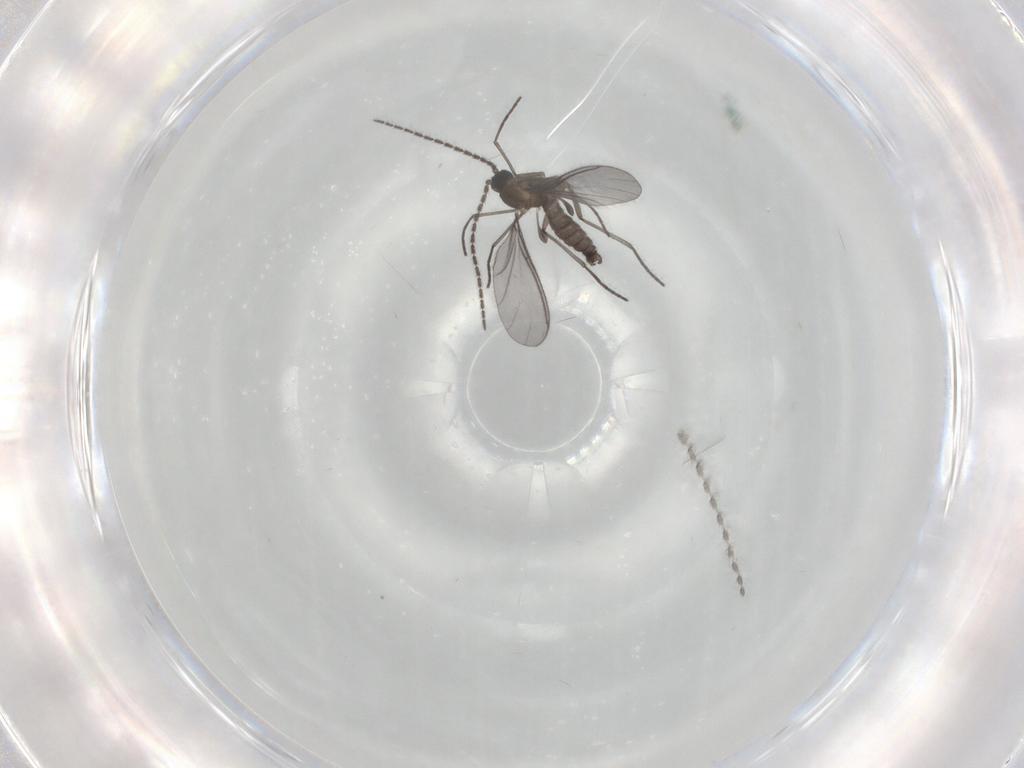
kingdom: Animalia
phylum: Arthropoda
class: Insecta
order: Diptera
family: Sciaridae
